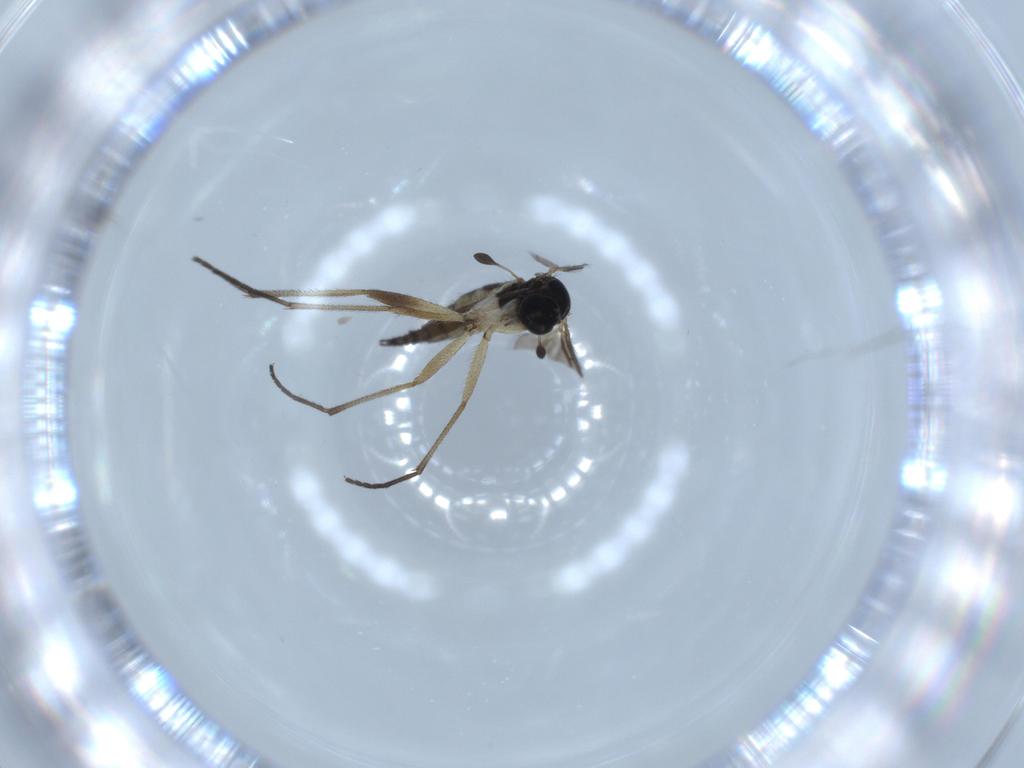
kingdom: Animalia
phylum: Arthropoda
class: Insecta
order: Diptera
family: Sciaridae
